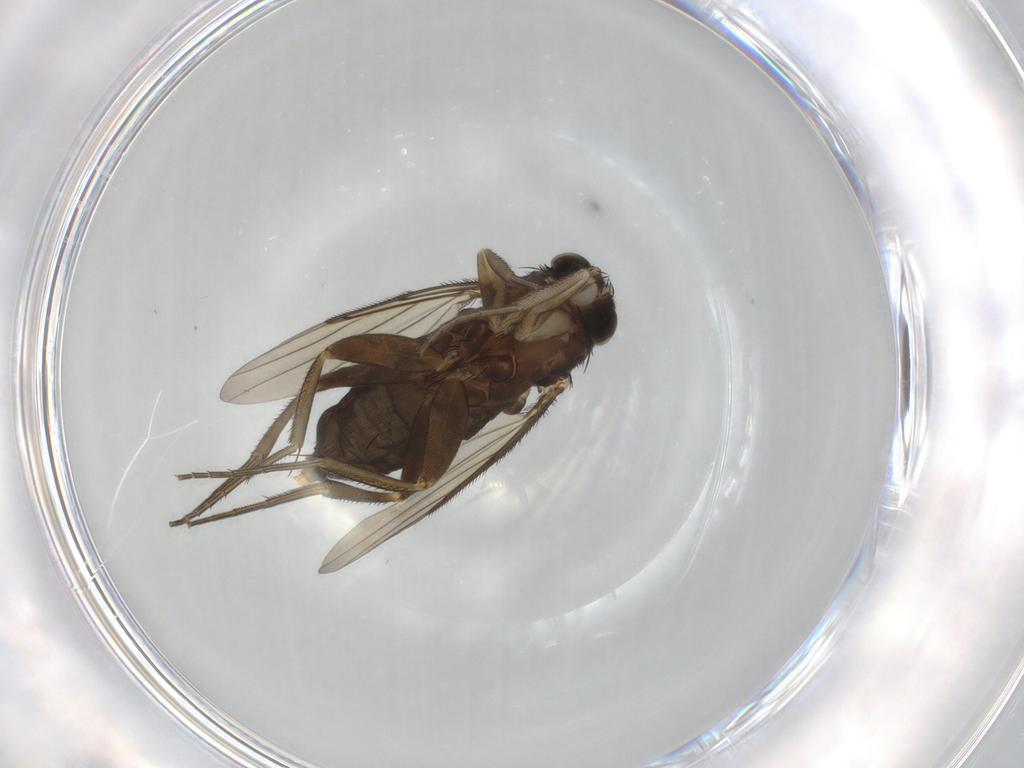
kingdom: Animalia
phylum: Arthropoda
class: Insecta
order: Diptera
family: Phoridae
